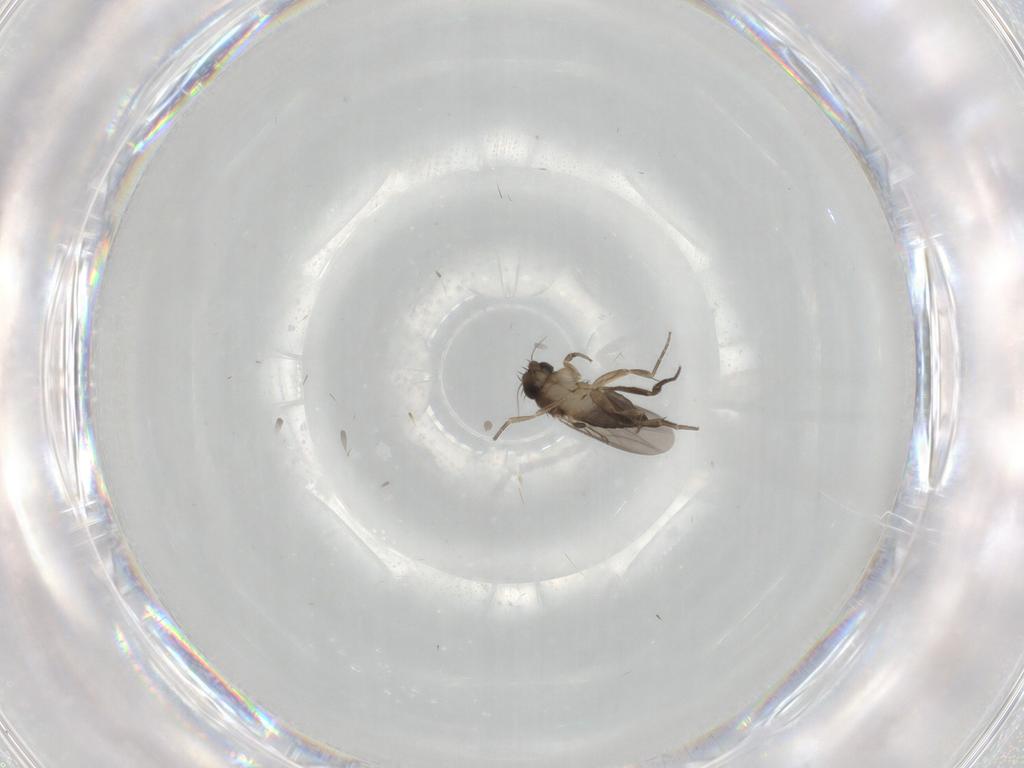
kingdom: Animalia
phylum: Arthropoda
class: Insecta
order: Diptera
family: Phoridae
